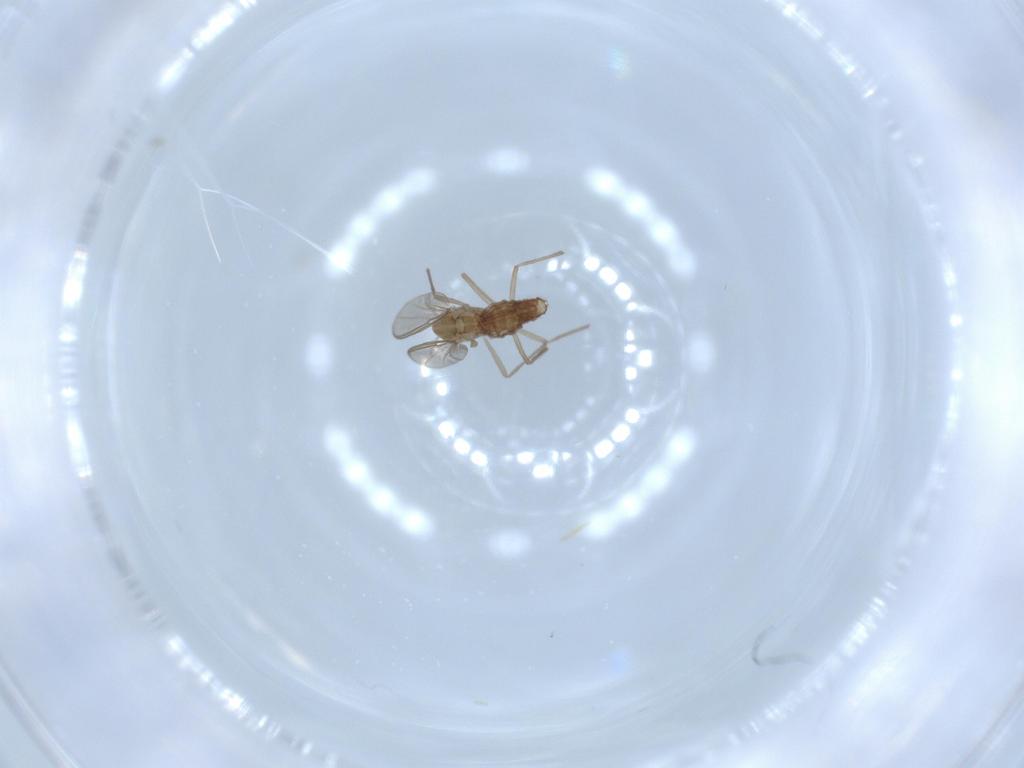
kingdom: Animalia
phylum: Arthropoda
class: Insecta
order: Diptera
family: Chironomidae
